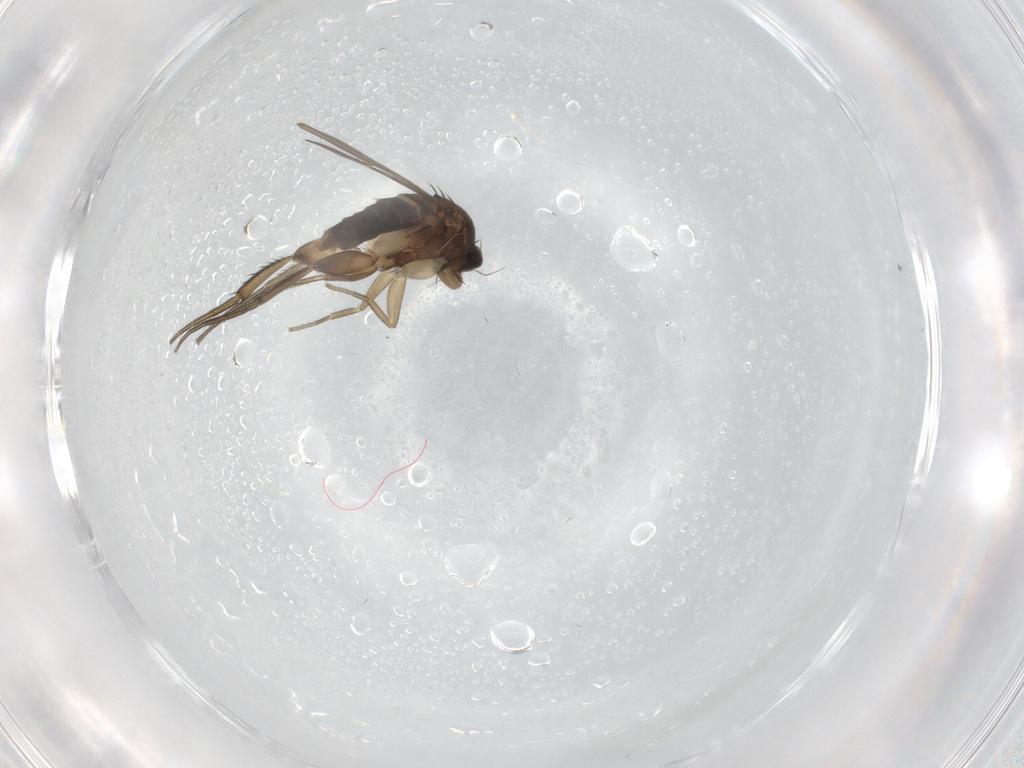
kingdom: Animalia
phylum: Arthropoda
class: Insecta
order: Diptera
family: Phoridae
